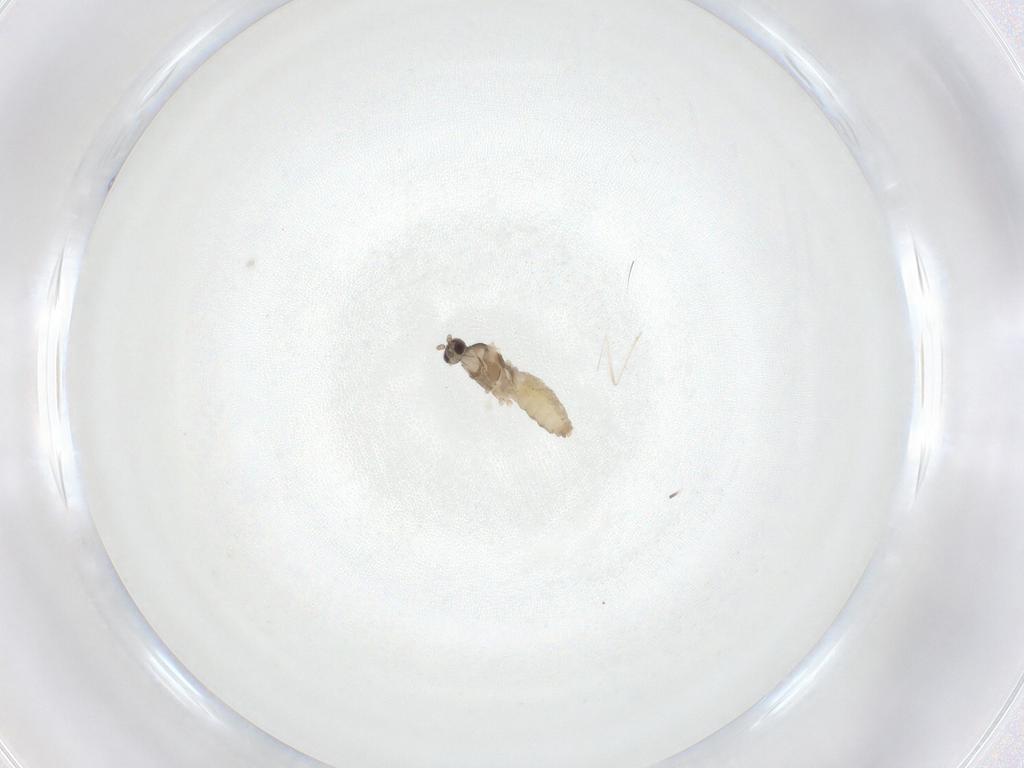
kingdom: Animalia
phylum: Arthropoda
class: Insecta
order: Diptera
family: Cecidomyiidae
